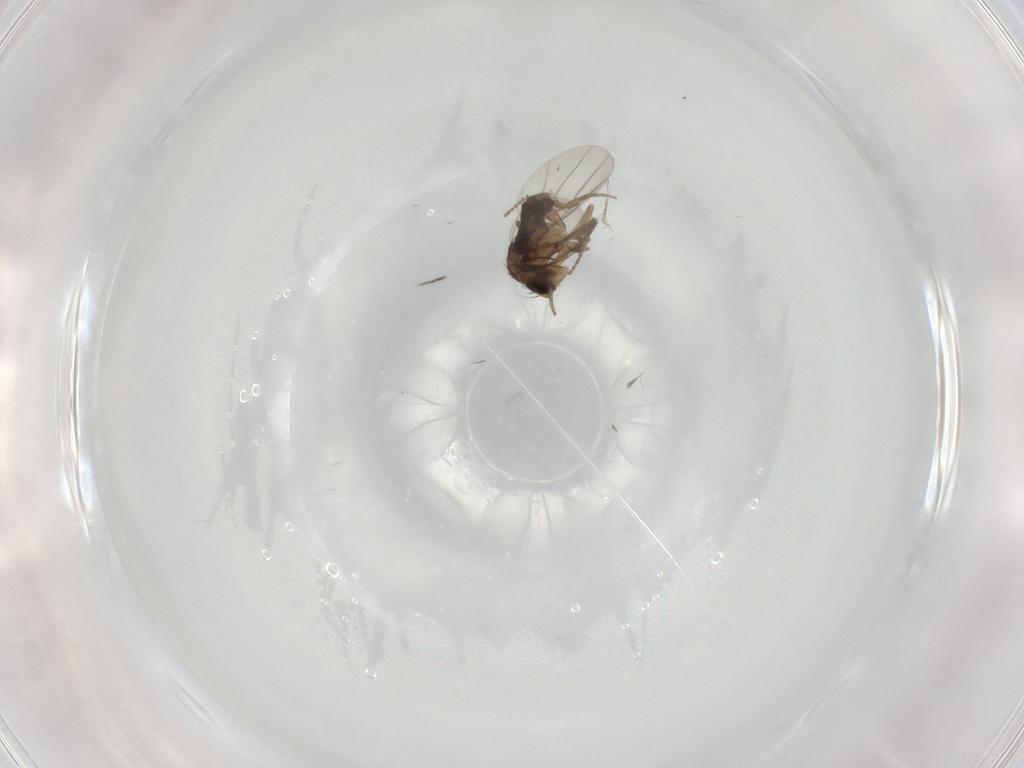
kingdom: Animalia
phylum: Arthropoda
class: Insecta
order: Diptera
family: Phoridae
